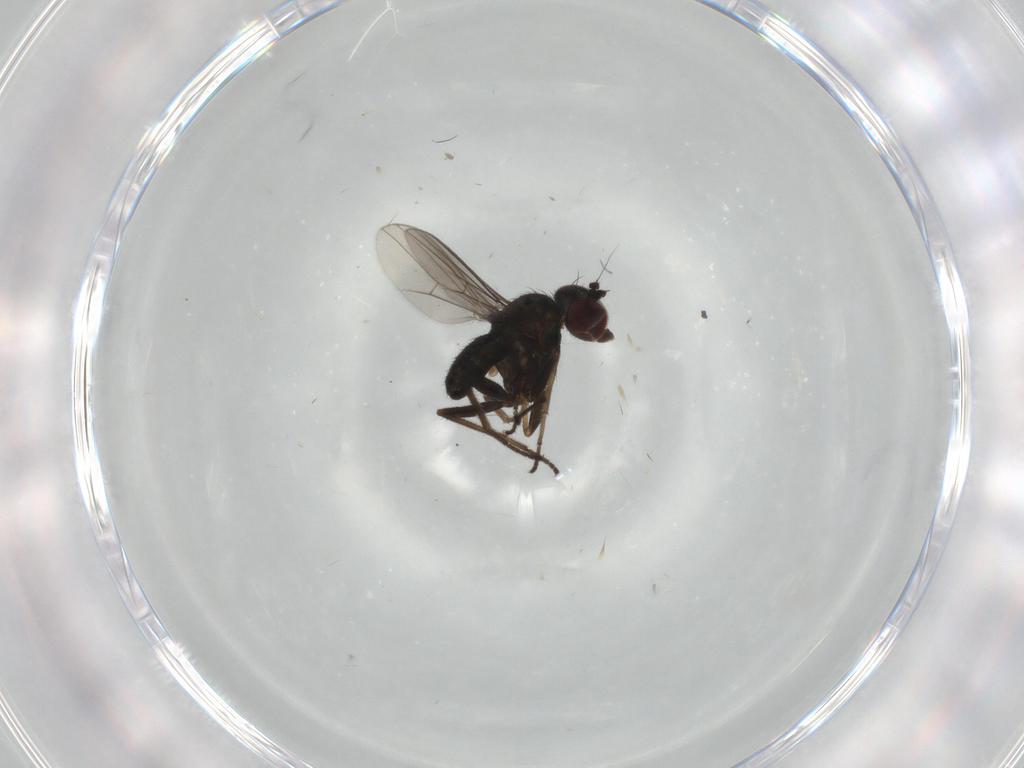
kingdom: Animalia
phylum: Arthropoda
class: Insecta
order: Diptera
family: Dolichopodidae
